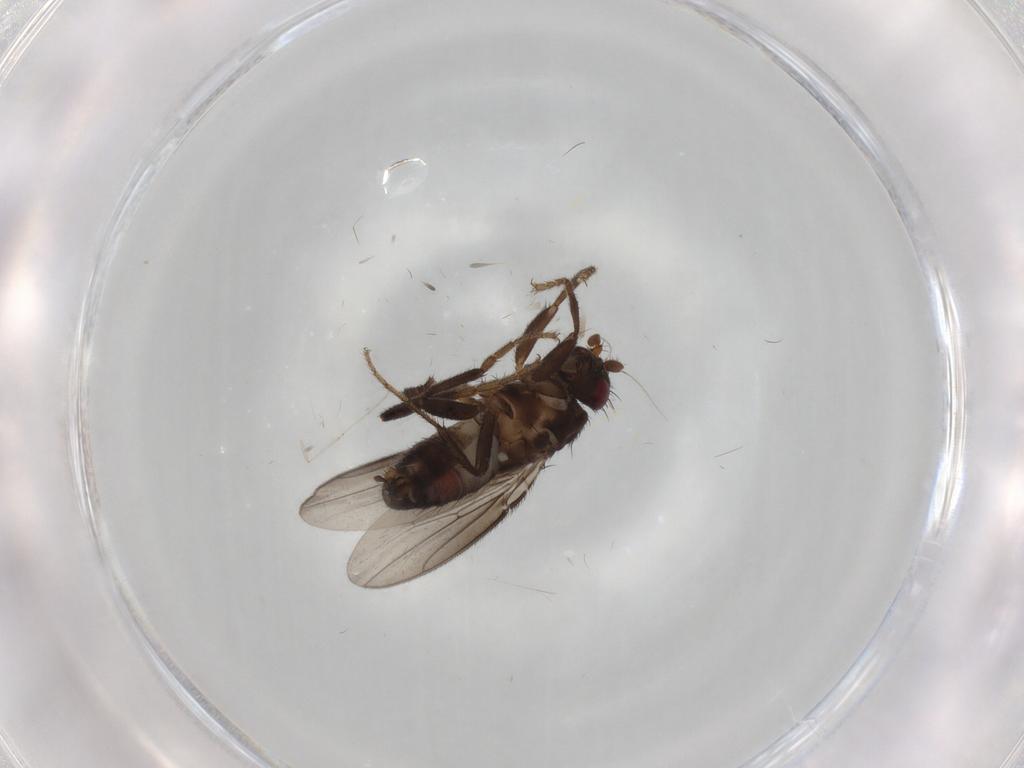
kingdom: Animalia
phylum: Arthropoda
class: Insecta
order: Diptera
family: Sphaeroceridae
